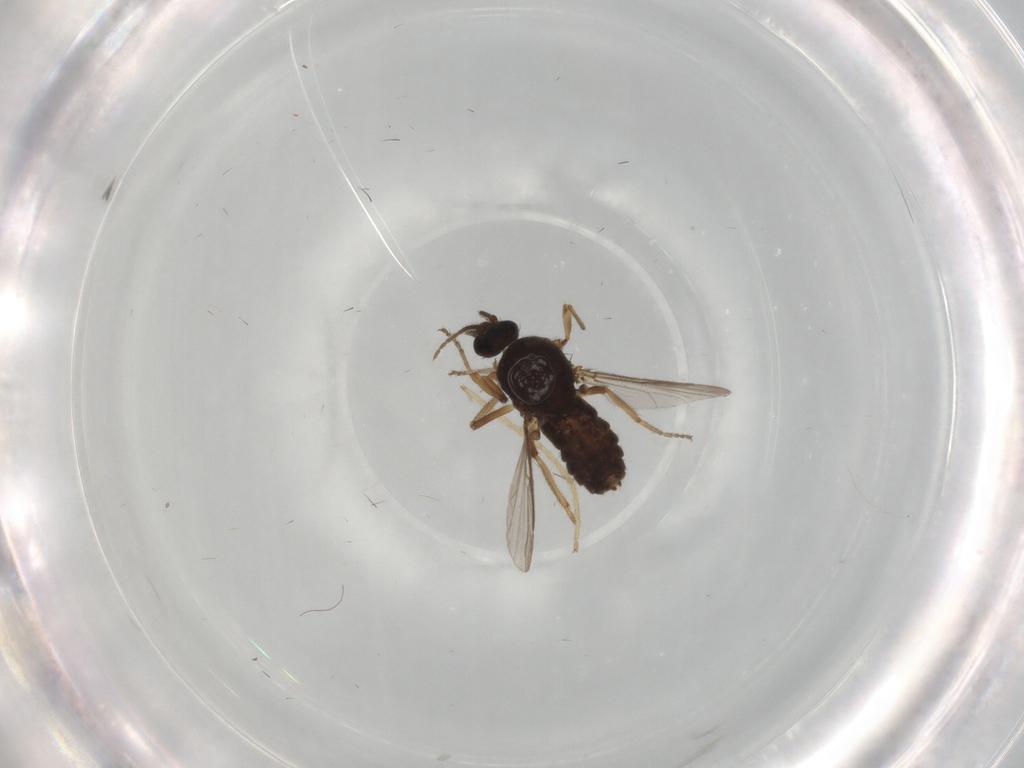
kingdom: Animalia
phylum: Arthropoda
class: Insecta
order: Diptera
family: Chironomidae
